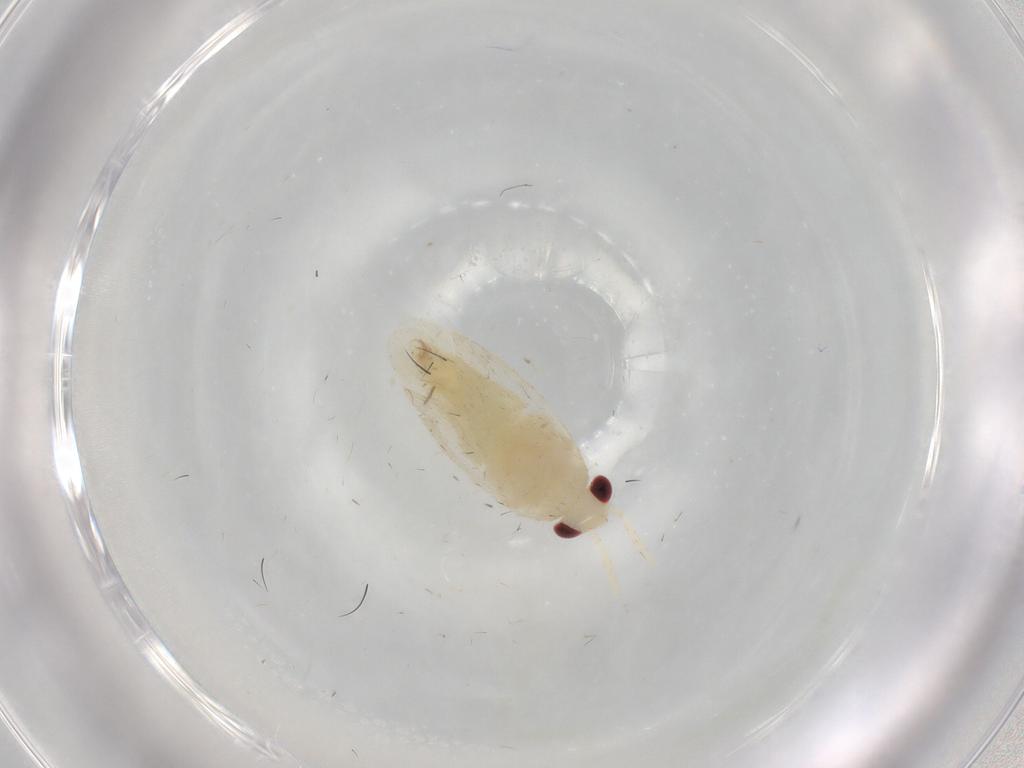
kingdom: Animalia
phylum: Arthropoda
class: Insecta
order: Hemiptera
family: Miridae
